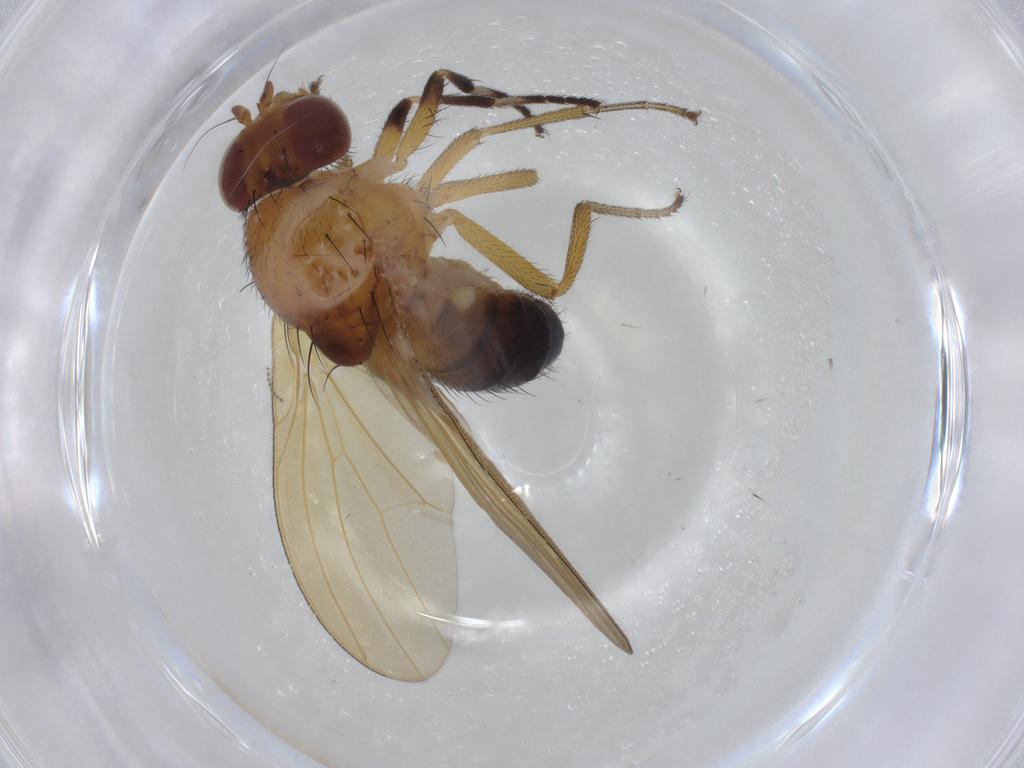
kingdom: Animalia
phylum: Arthropoda
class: Insecta
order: Diptera
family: Cecidomyiidae
